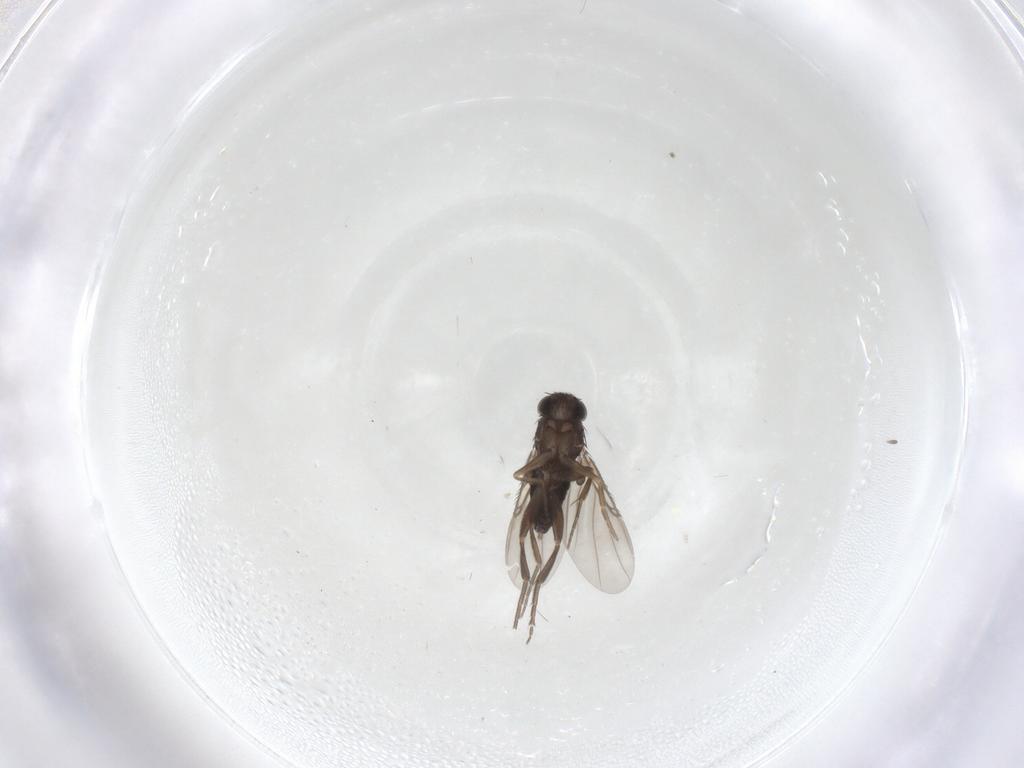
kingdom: Animalia
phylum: Arthropoda
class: Insecta
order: Diptera
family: Phoridae
